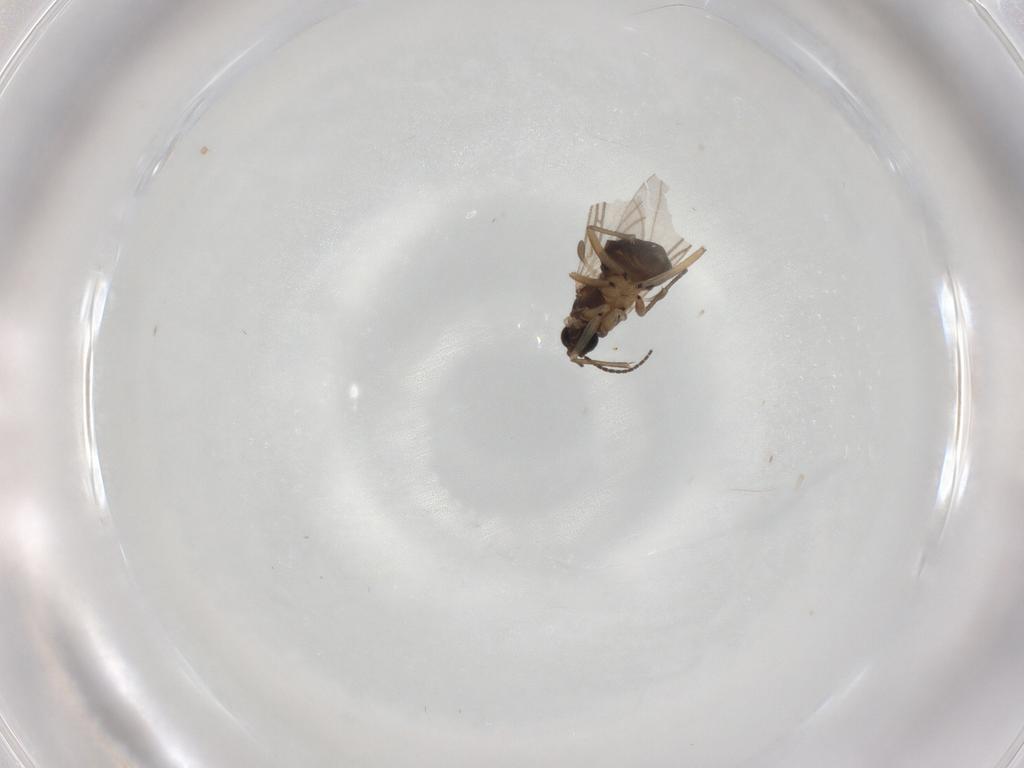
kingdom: Animalia
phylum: Arthropoda
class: Insecta
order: Diptera
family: Sciaridae
